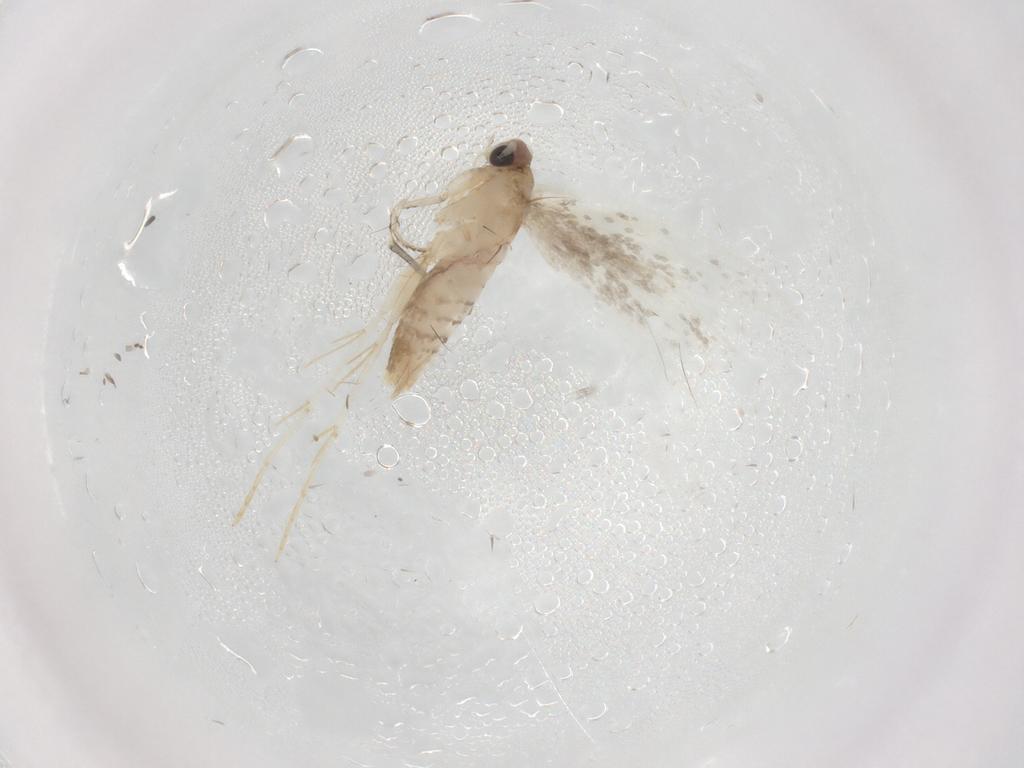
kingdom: Animalia
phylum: Arthropoda
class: Insecta
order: Lepidoptera
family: Meessiidae
